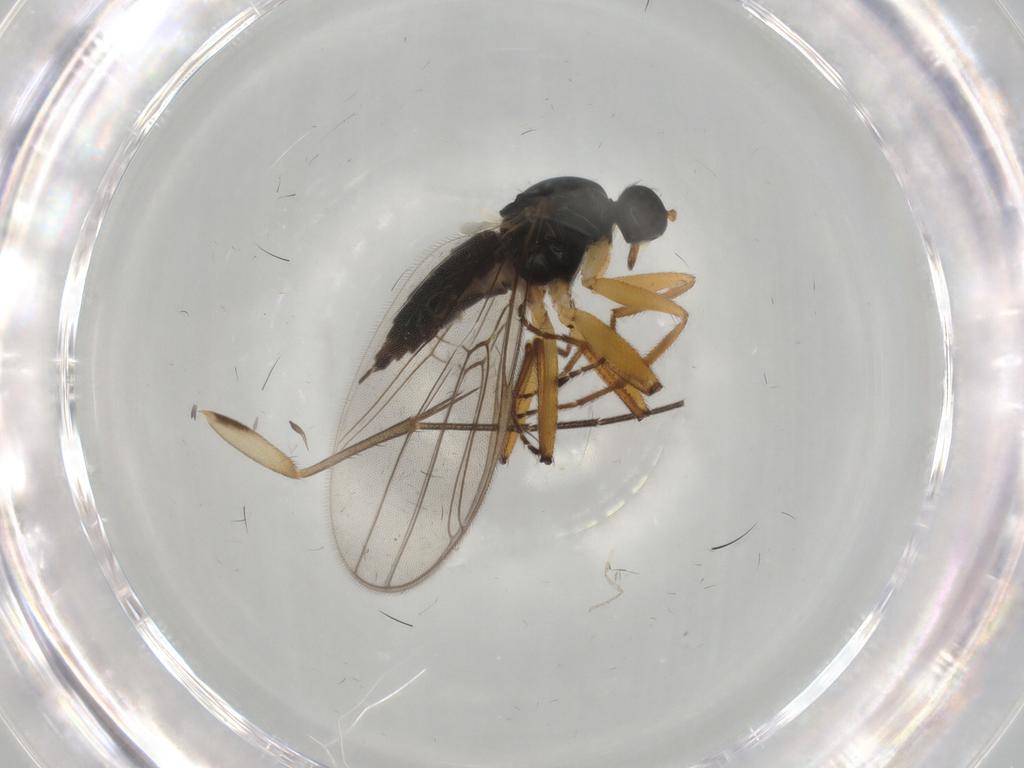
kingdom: Animalia
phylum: Arthropoda
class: Insecta
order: Diptera
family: Hybotidae
